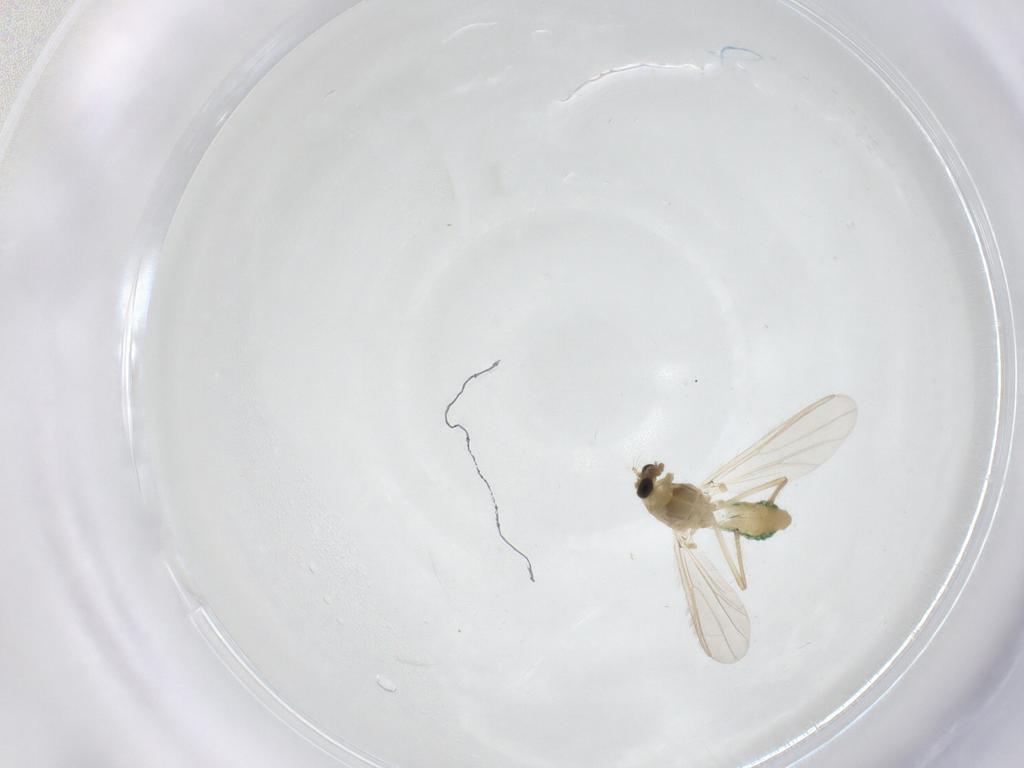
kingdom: Animalia
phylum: Arthropoda
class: Insecta
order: Diptera
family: Chironomidae
